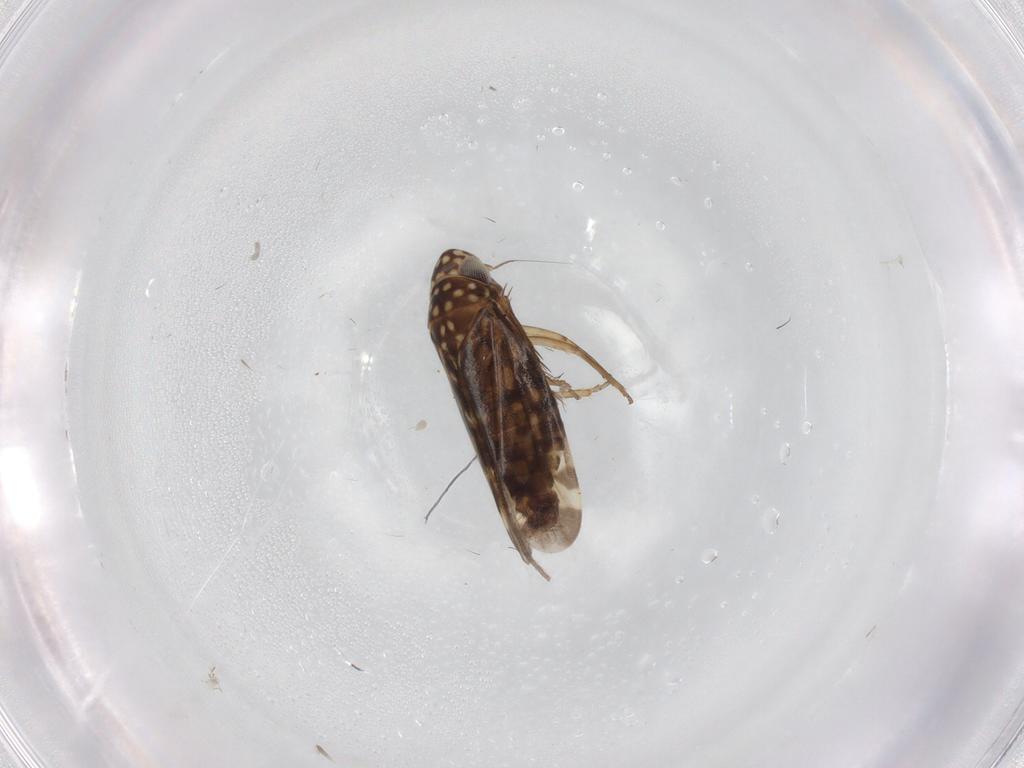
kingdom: Animalia
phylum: Arthropoda
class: Insecta
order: Hemiptera
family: Cicadellidae
